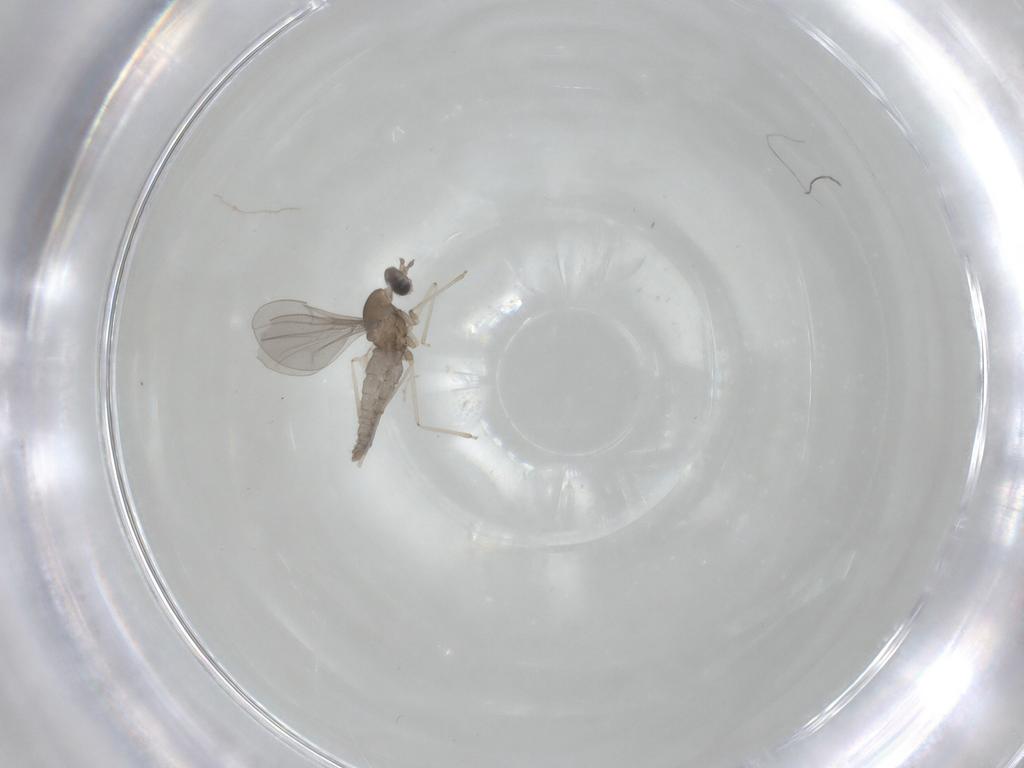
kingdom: Animalia
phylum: Arthropoda
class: Insecta
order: Diptera
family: Cecidomyiidae
